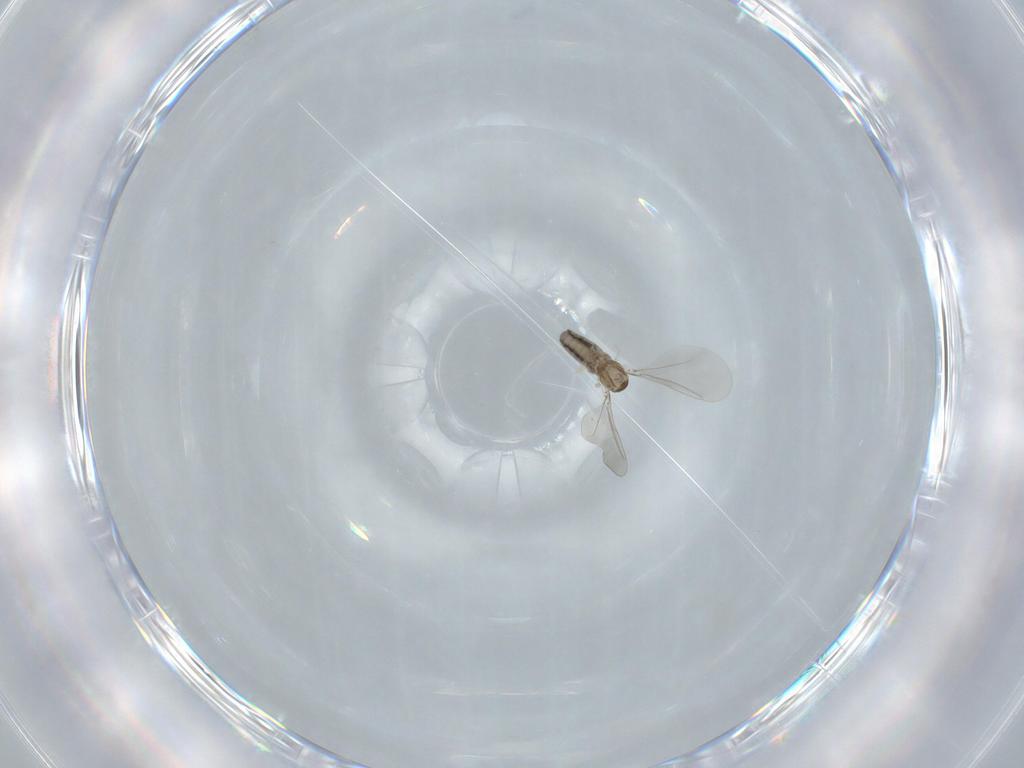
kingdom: Animalia
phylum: Arthropoda
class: Insecta
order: Diptera
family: Cecidomyiidae
